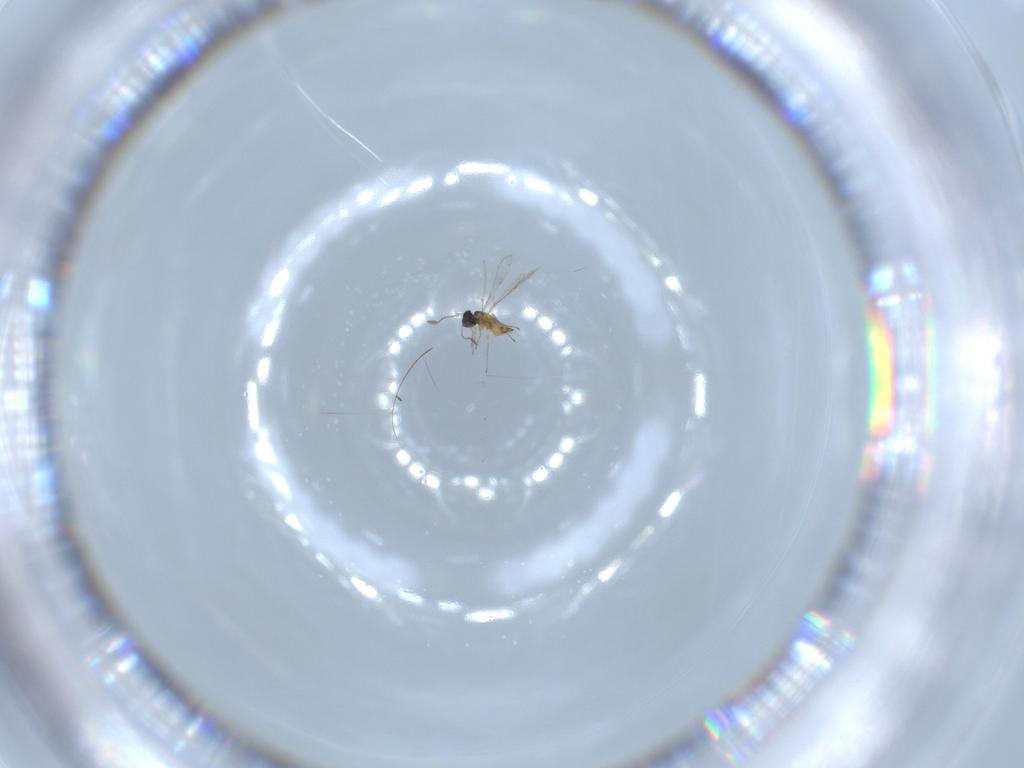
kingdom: Animalia
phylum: Arthropoda
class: Insecta
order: Hymenoptera
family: Mymaridae
